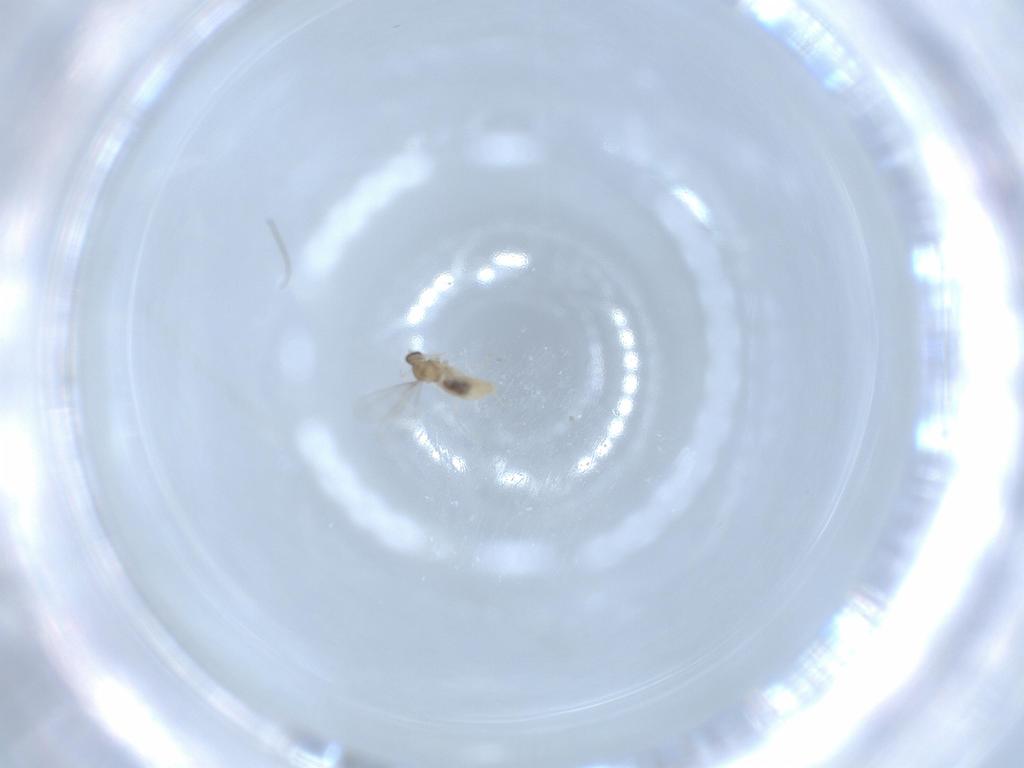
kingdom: Animalia
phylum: Arthropoda
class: Insecta
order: Diptera
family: Cecidomyiidae
